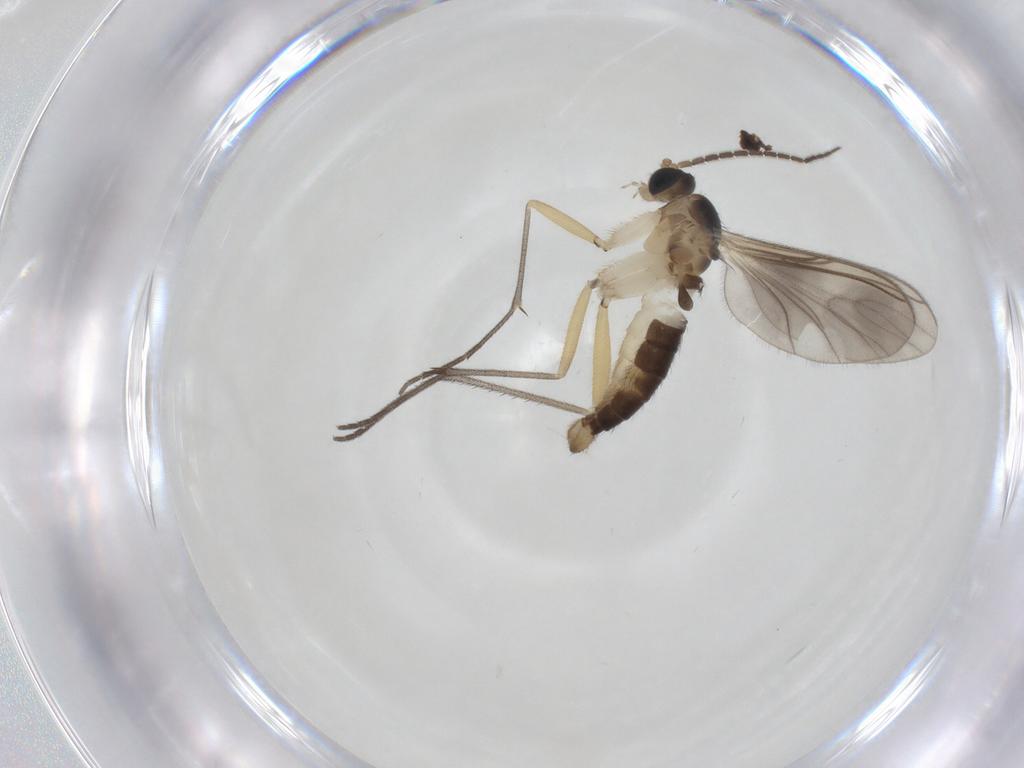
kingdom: Animalia
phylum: Arthropoda
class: Insecta
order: Diptera
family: Sciaridae
